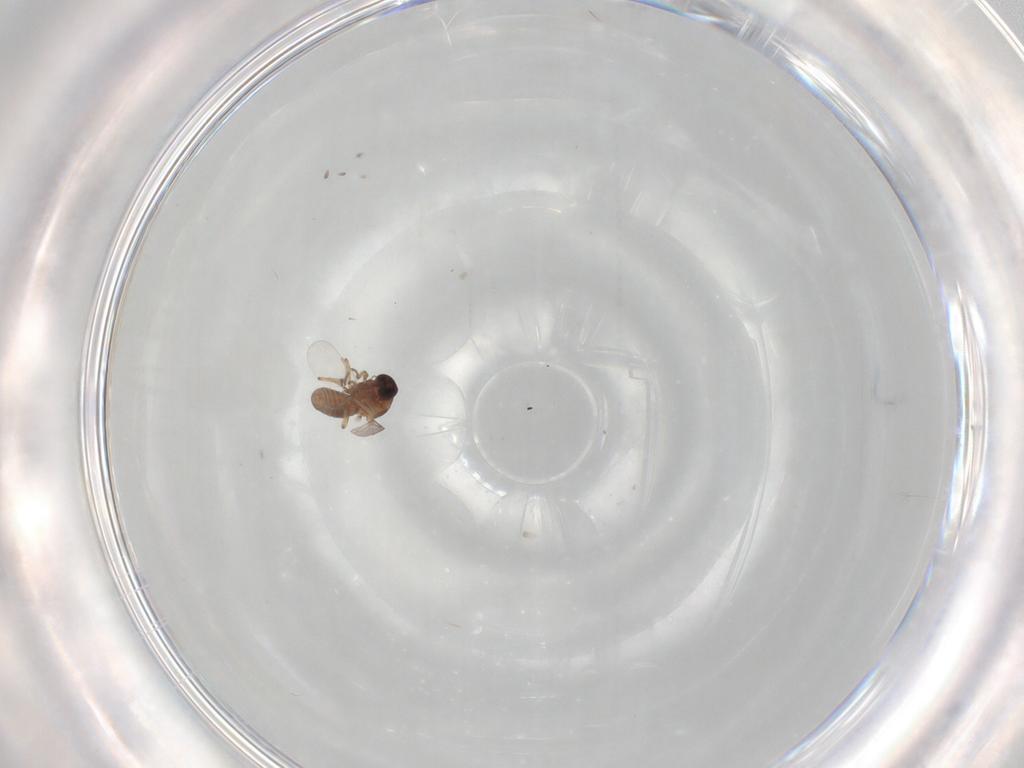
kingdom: Animalia
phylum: Arthropoda
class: Insecta
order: Diptera
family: Ceratopogonidae
